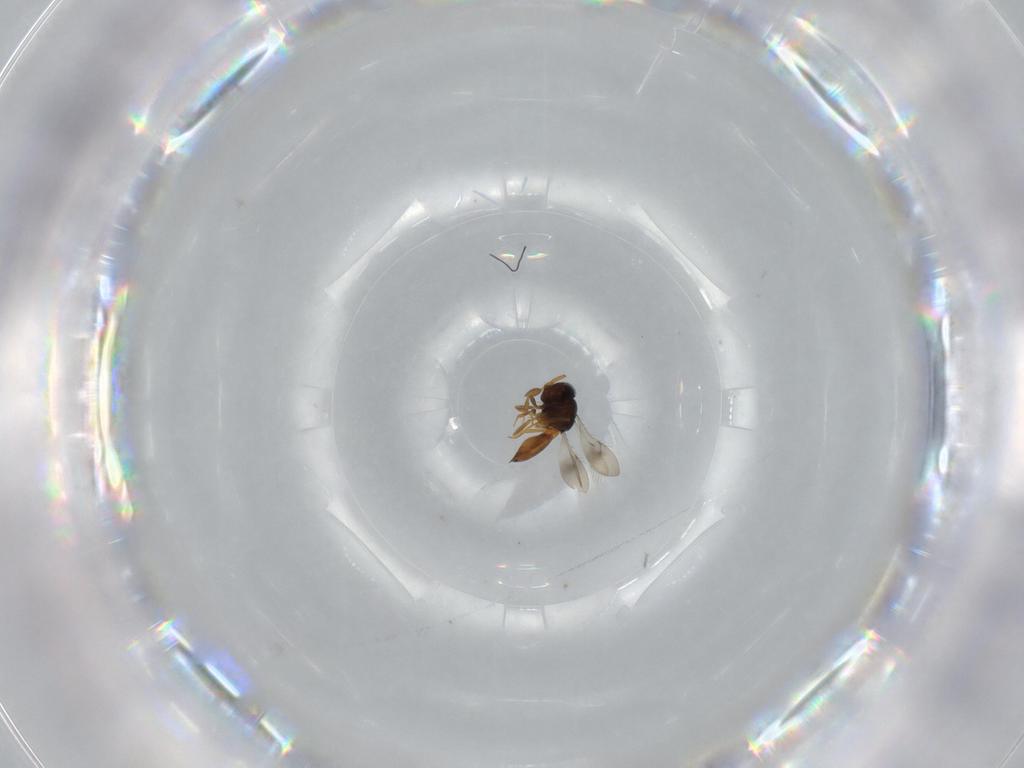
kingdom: Animalia
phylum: Arthropoda
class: Insecta
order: Hymenoptera
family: Scelionidae
